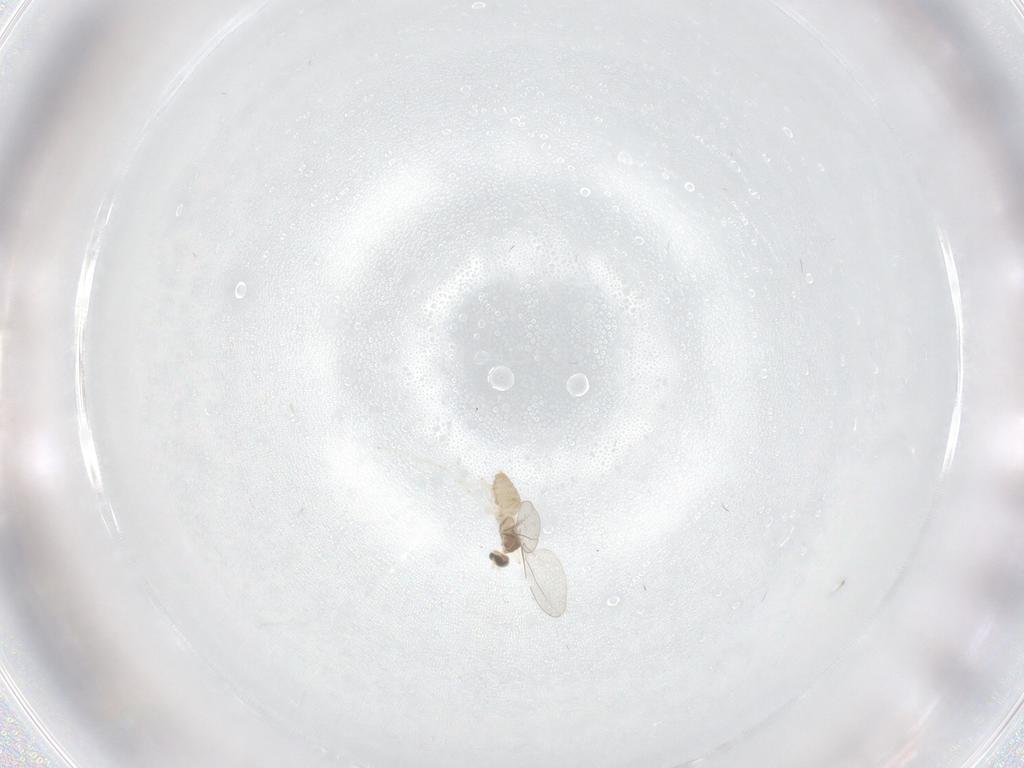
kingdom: Animalia
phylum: Arthropoda
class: Insecta
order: Diptera
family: Cecidomyiidae
